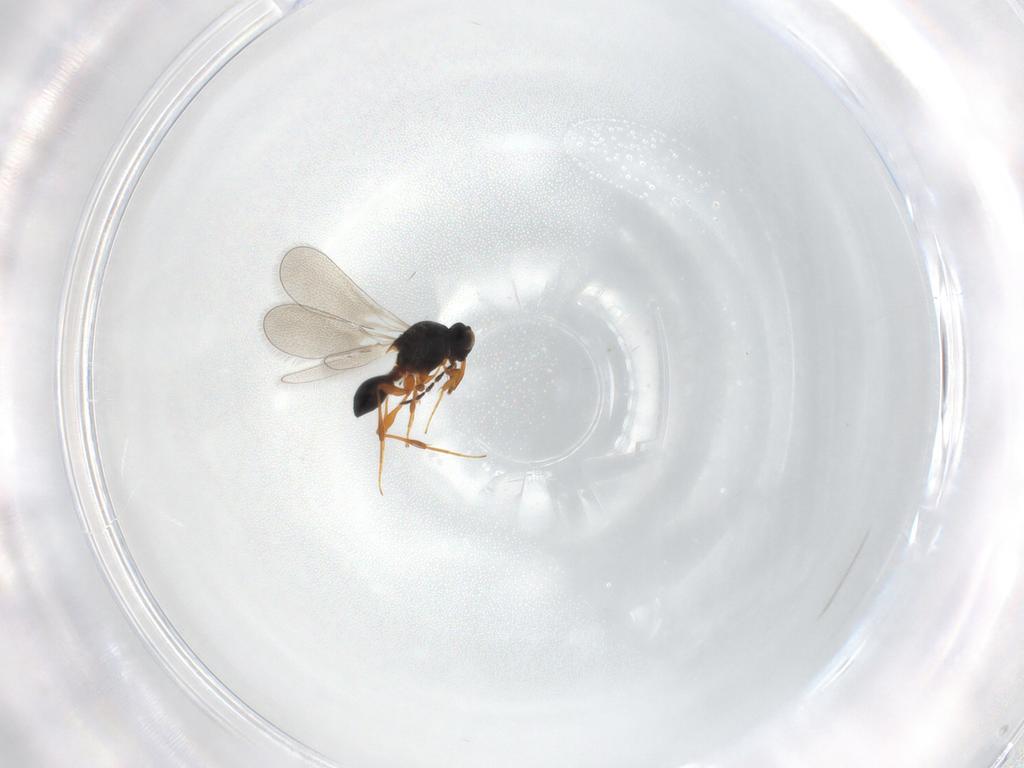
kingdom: Animalia
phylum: Arthropoda
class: Insecta
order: Hymenoptera
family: Platygastridae
